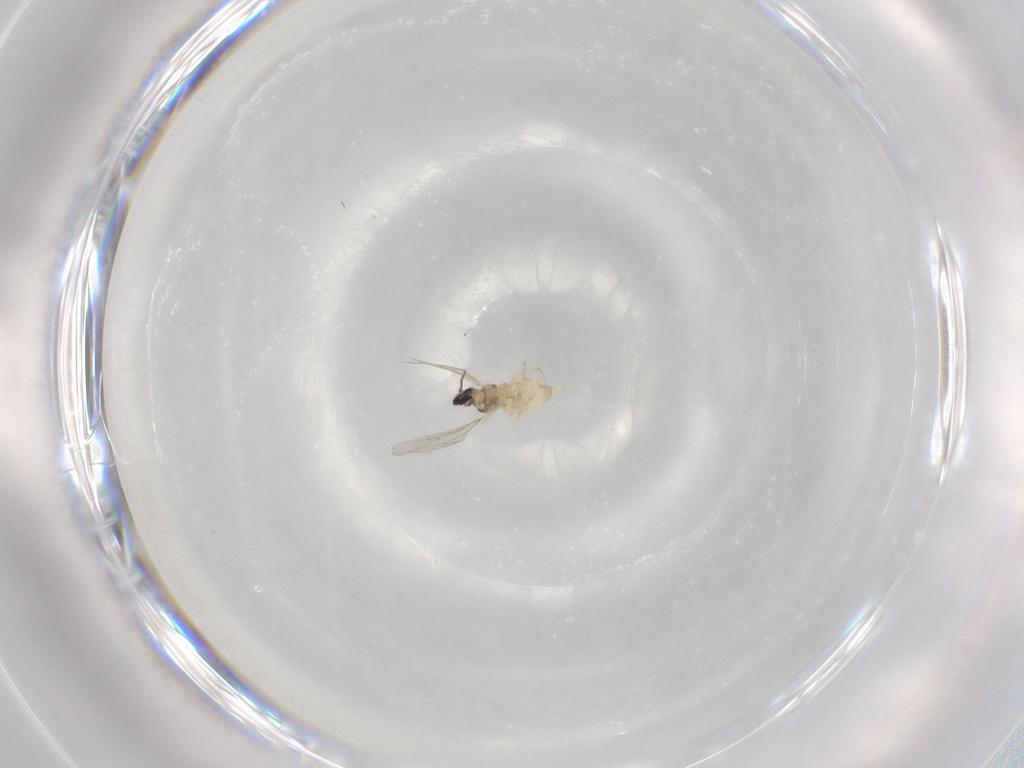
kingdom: Animalia
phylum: Arthropoda
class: Insecta
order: Diptera
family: Cecidomyiidae
